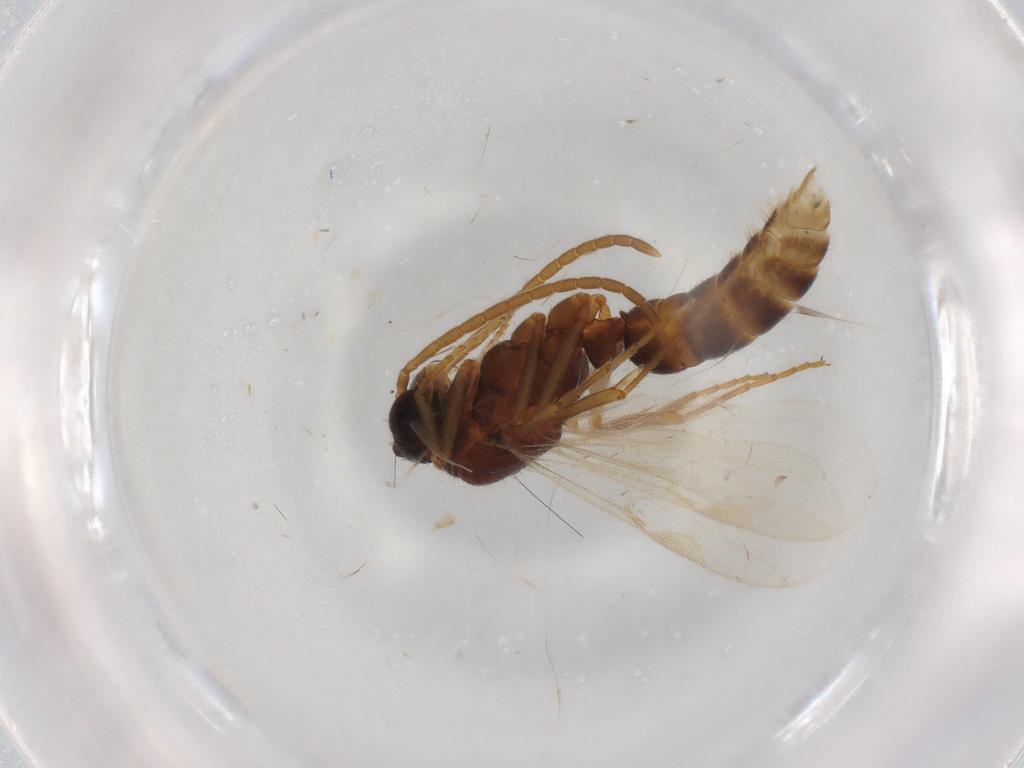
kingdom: Animalia
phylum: Arthropoda
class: Insecta
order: Hymenoptera
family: Formicidae
